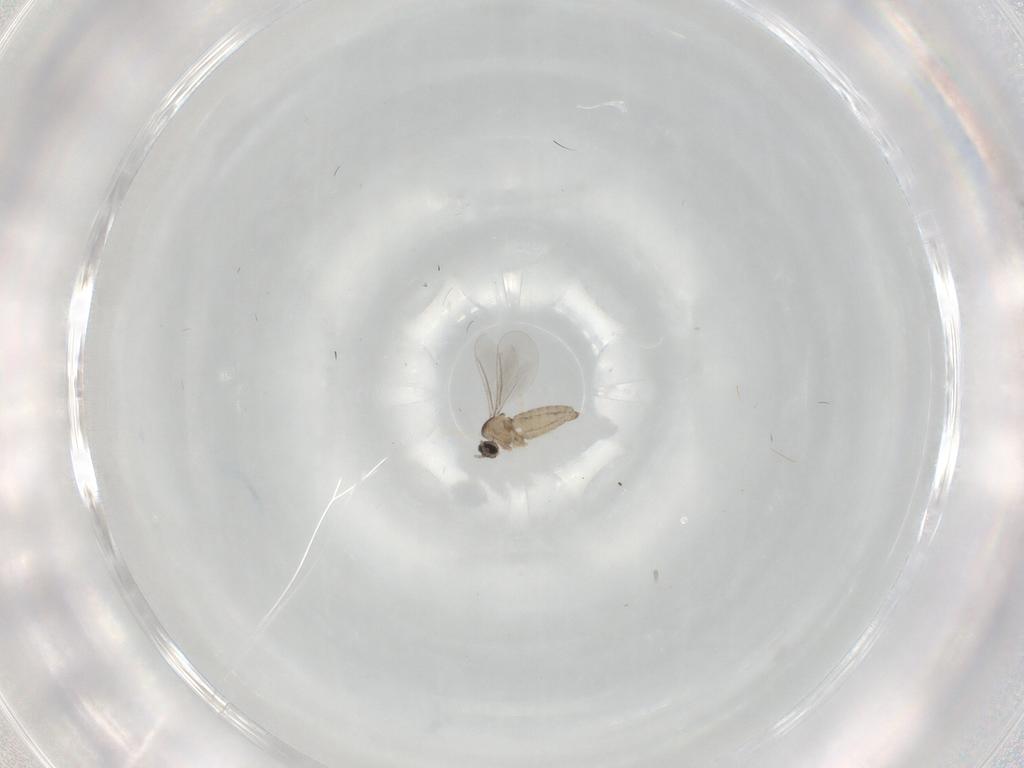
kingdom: Animalia
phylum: Arthropoda
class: Insecta
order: Diptera
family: Cecidomyiidae
